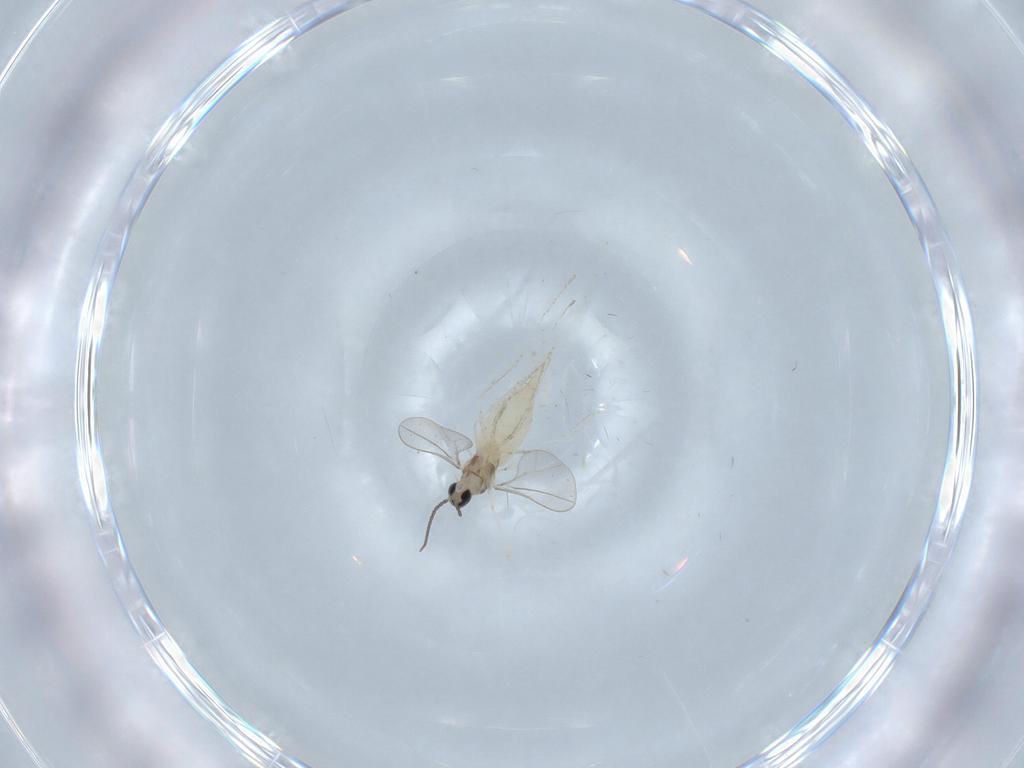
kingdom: Animalia
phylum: Arthropoda
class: Insecta
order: Diptera
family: Cecidomyiidae
